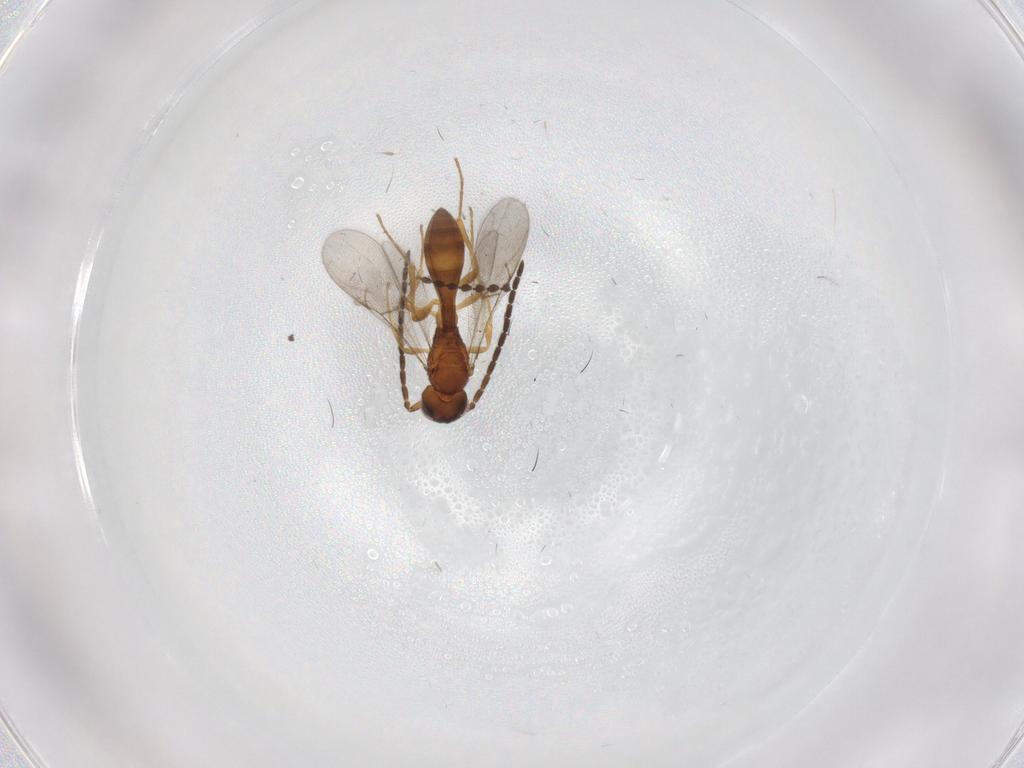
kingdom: Animalia
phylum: Arthropoda
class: Insecta
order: Hymenoptera
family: Scelionidae
